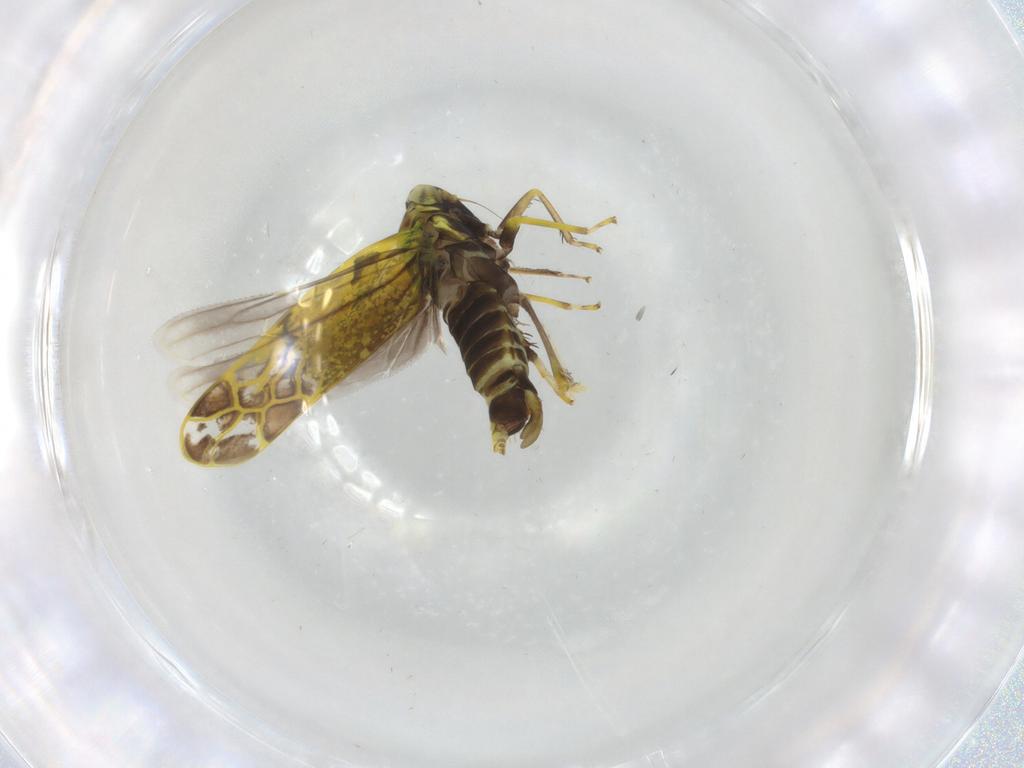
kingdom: Animalia
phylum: Arthropoda
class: Insecta
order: Hemiptera
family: Cicadellidae
